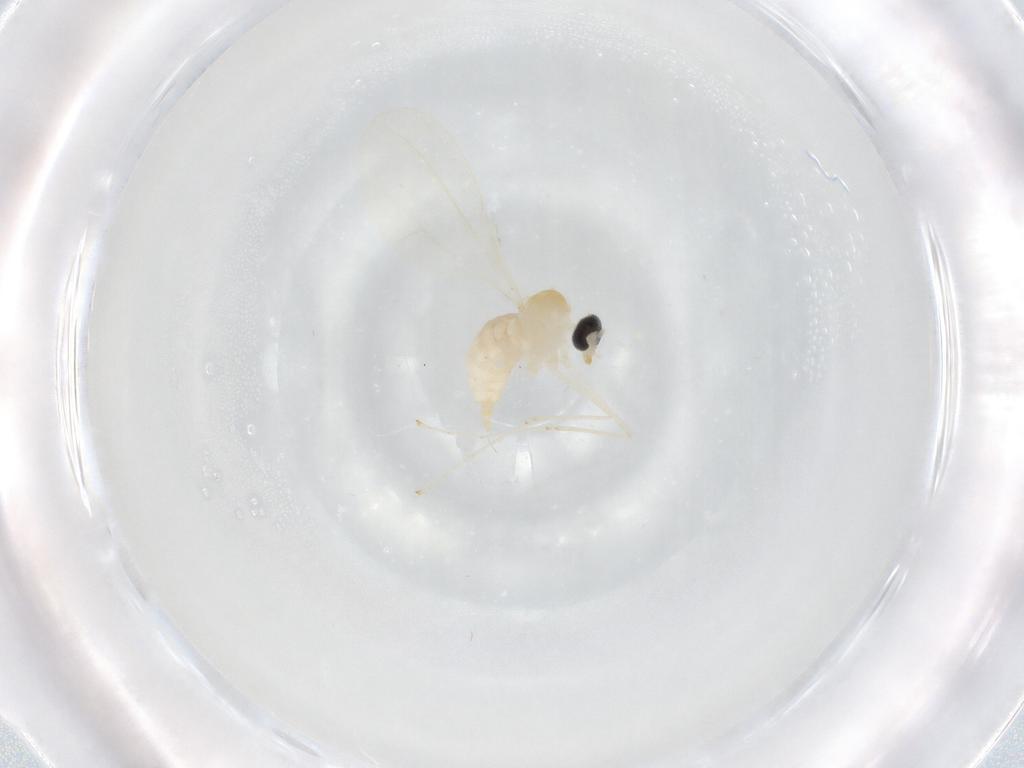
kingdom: Animalia
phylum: Arthropoda
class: Insecta
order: Diptera
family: Cecidomyiidae
